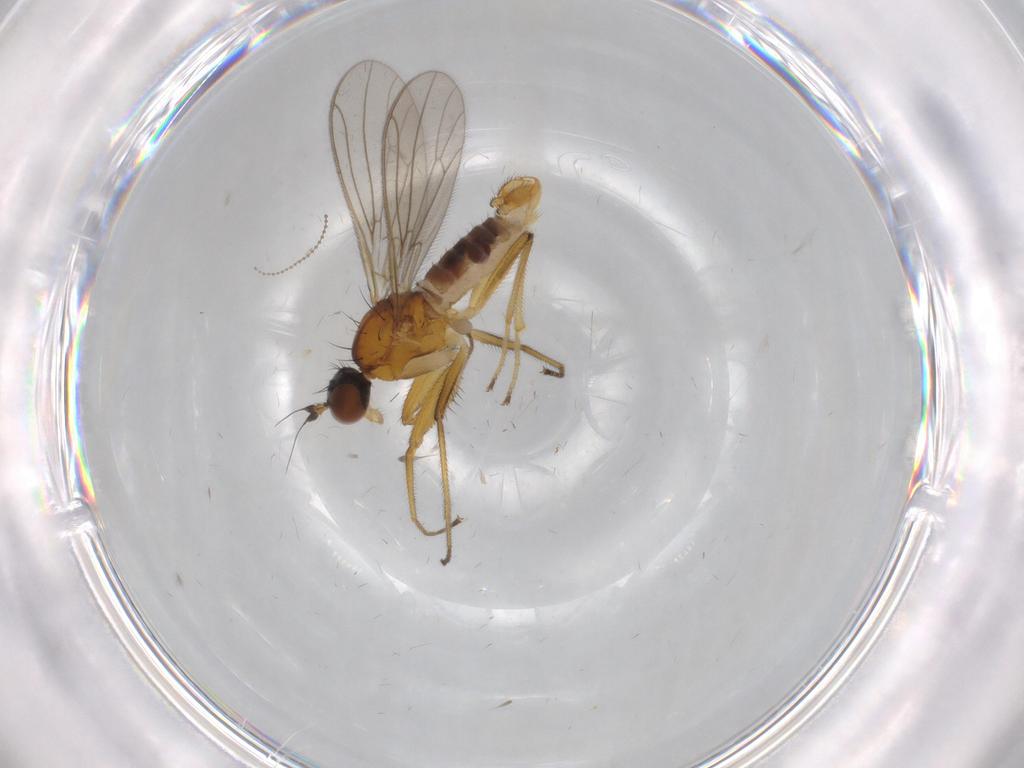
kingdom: Animalia
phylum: Arthropoda
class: Insecta
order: Diptera
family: Empididae
